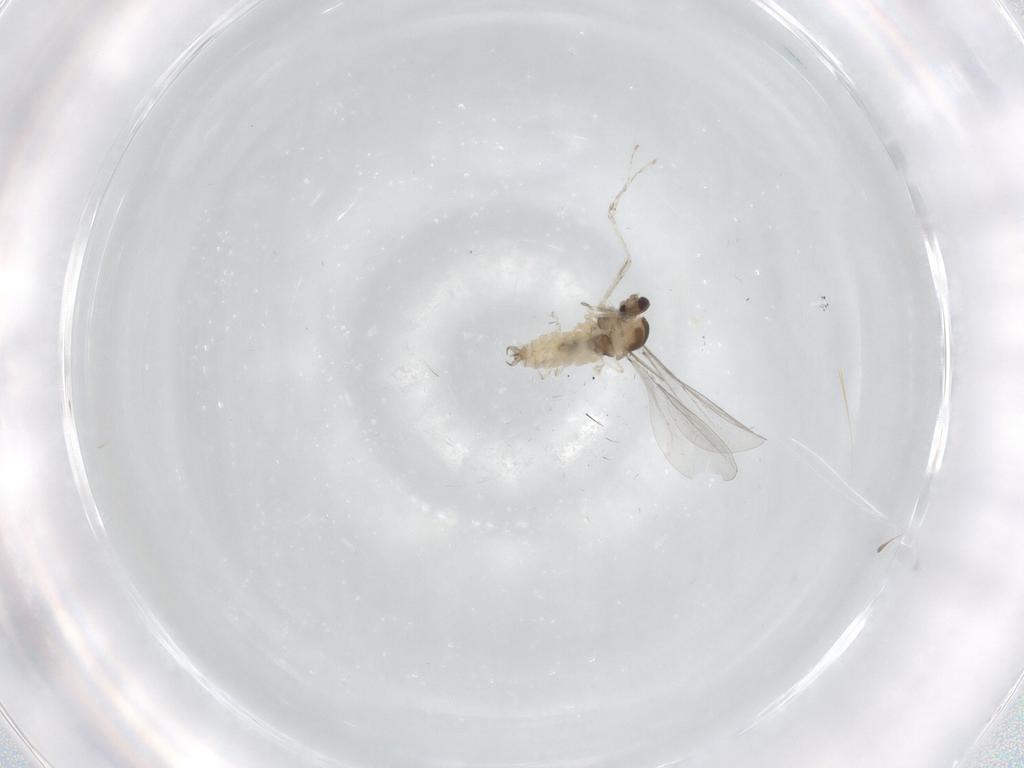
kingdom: Animalia
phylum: Arthropoda
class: Insecta
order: Diptera
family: Cecidomyiidae
